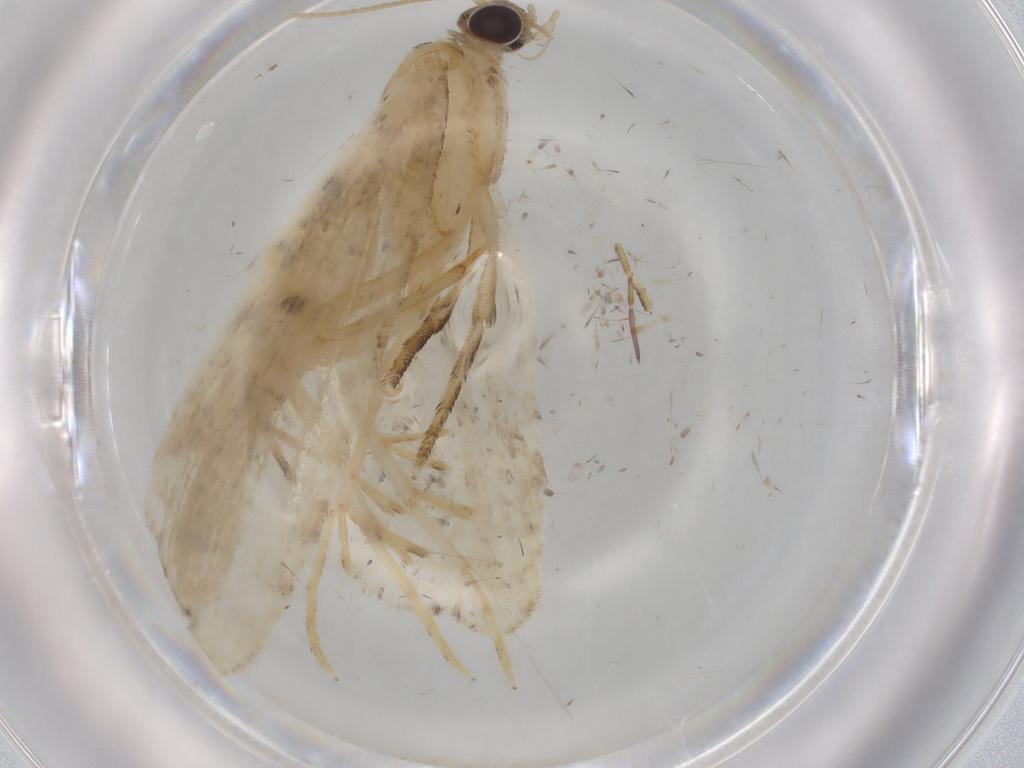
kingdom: Animalia
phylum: Arthropoda
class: Insecta
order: Lepidoptera
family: Crambidae
